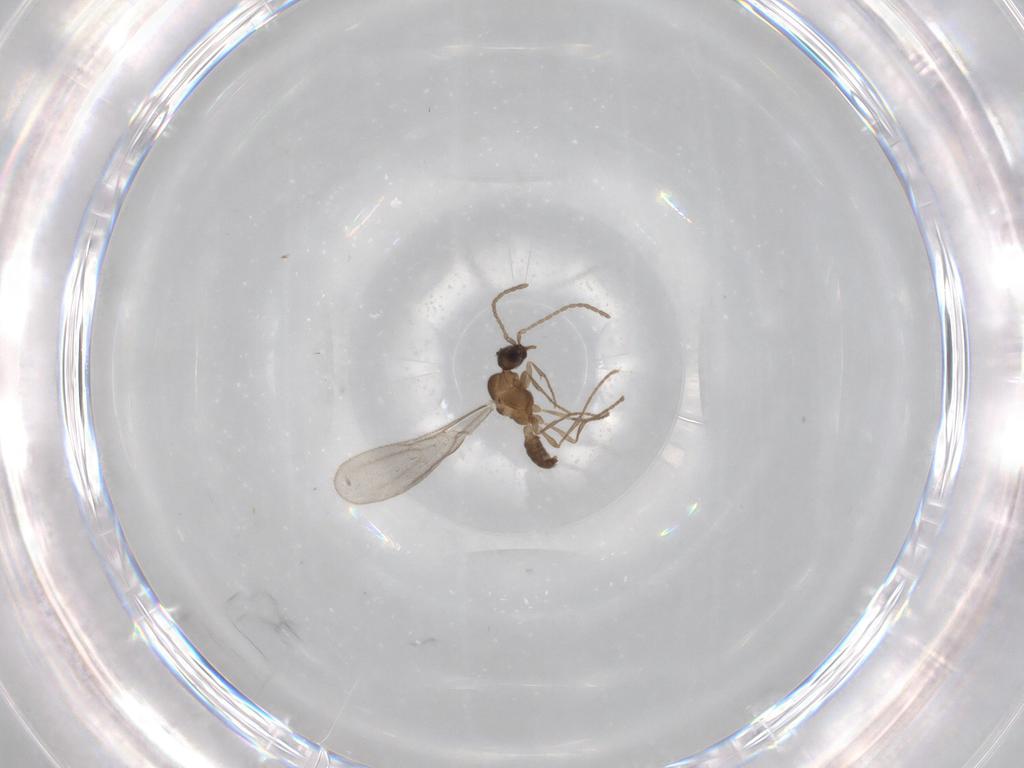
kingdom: Animalia
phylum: Arthropoda
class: Insecta
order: Hymenoptera
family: Formicidae
